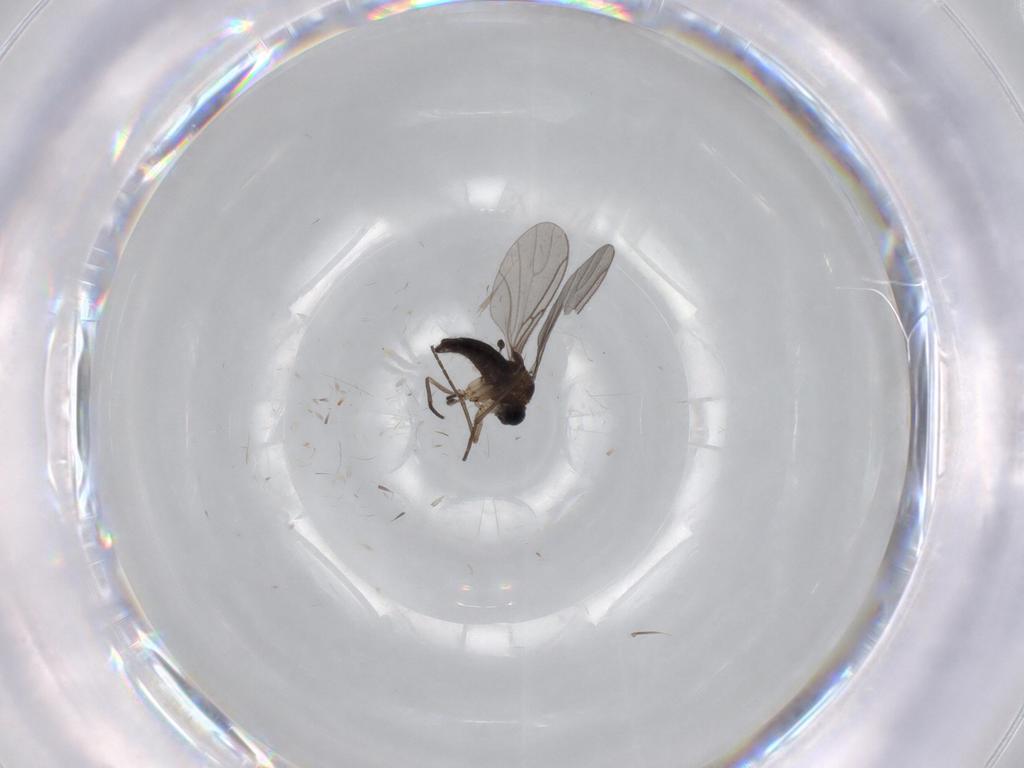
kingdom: Animalia
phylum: Arthropoda
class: Insecta
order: Diptera
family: Sciaridae
